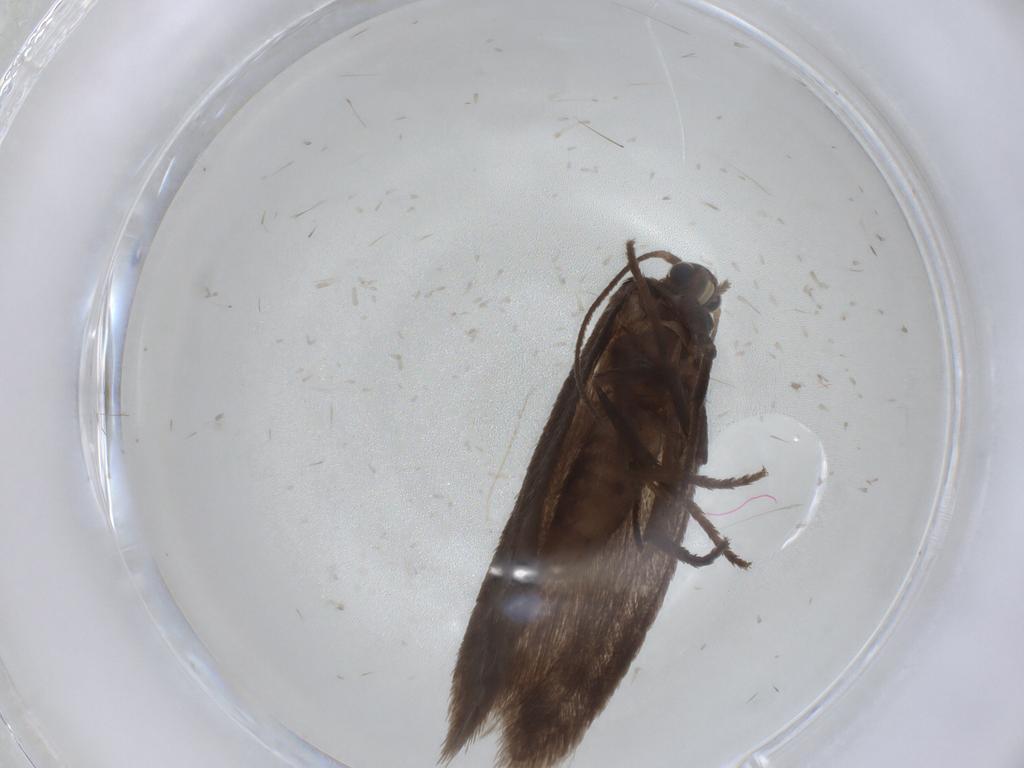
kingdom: Animalia
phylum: Arthropoda
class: Insecta
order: Lepidoptera
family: Limacodidae
